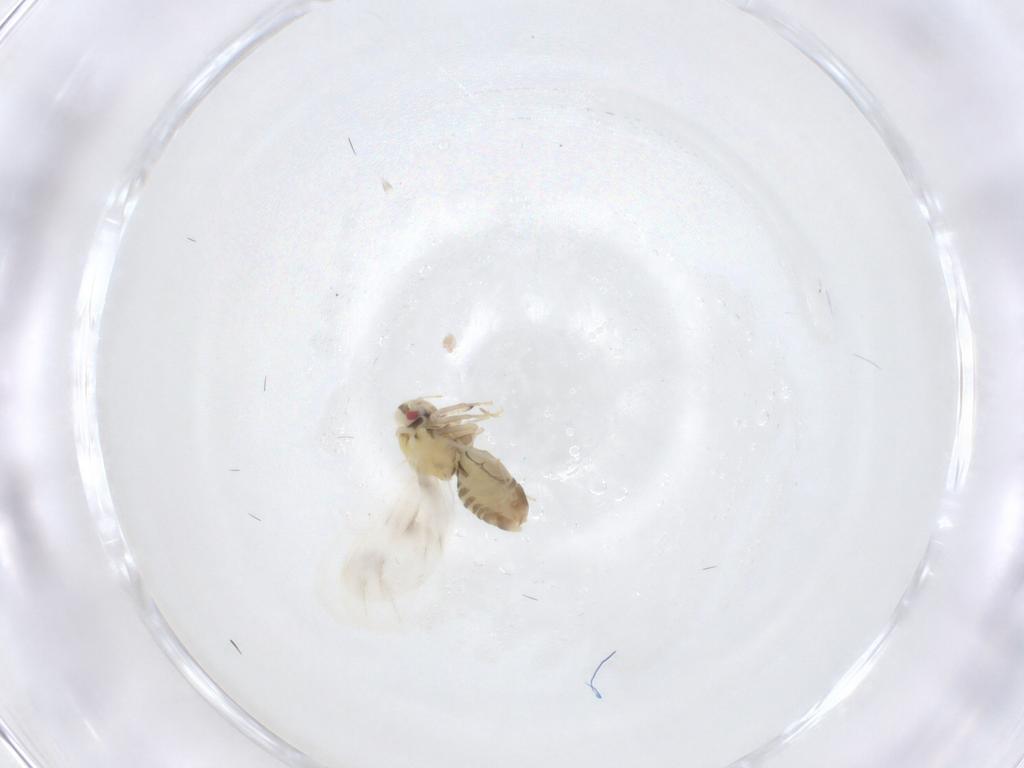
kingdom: Animalia
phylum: Arthropoda
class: Insecta
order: Hemiptera
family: Aleyrodidae
